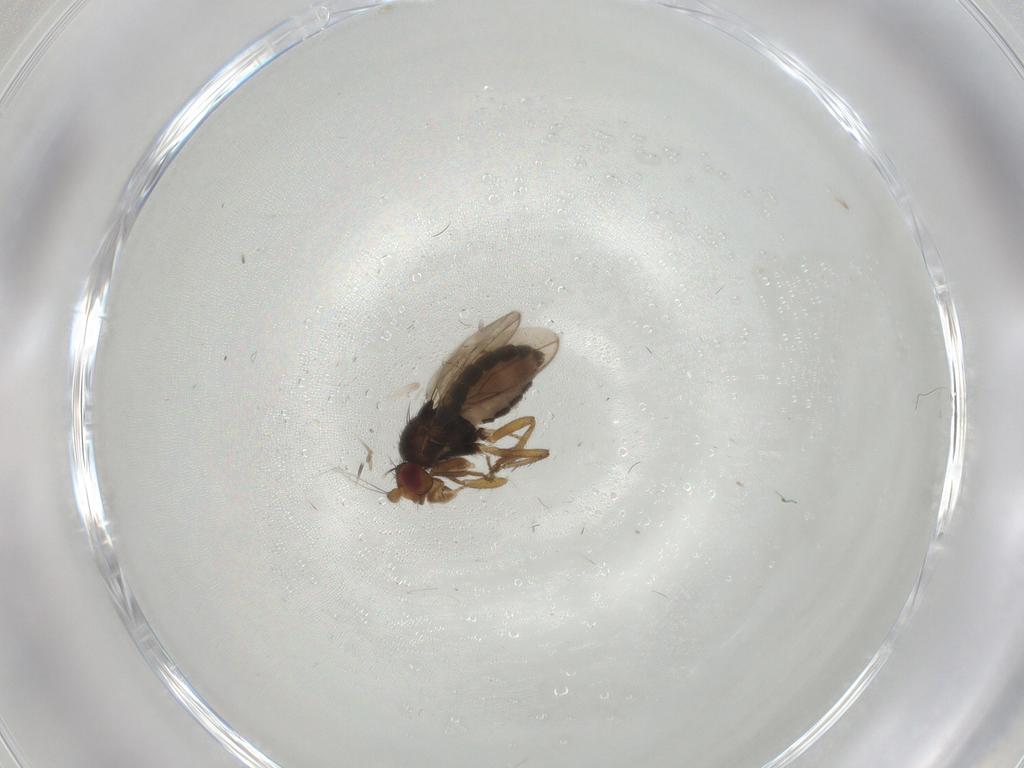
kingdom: Animalia
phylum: Arthropoda
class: Insecta
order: Diptera
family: Sphaeroceridae
